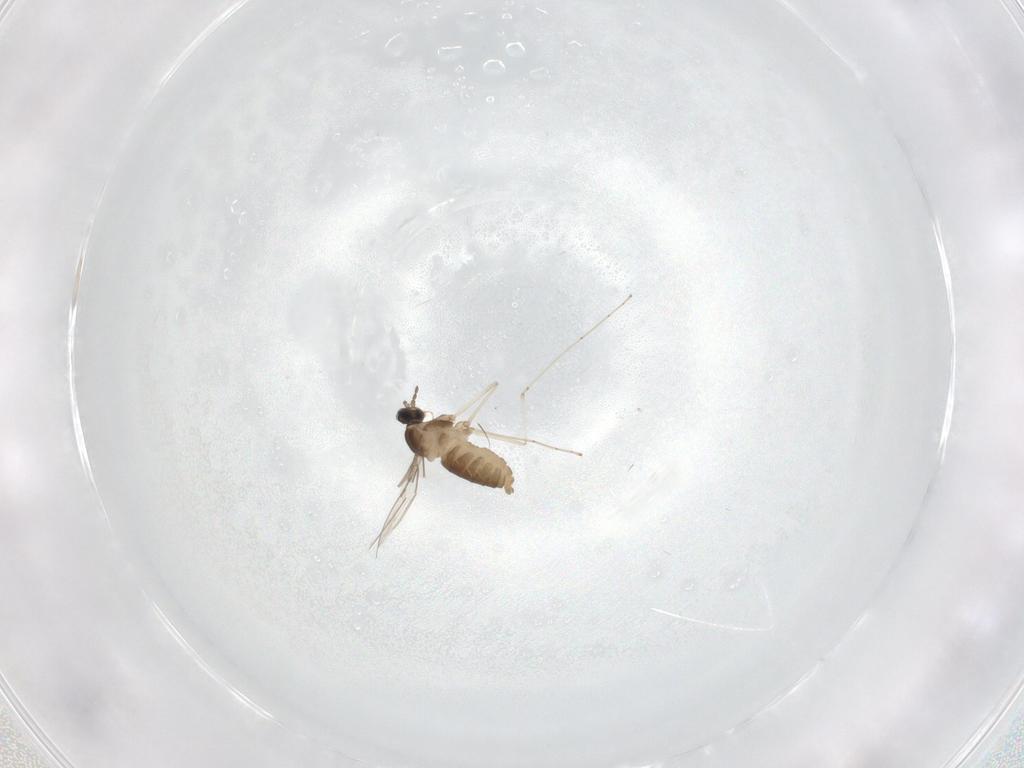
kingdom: Animalia
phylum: Arthropoda
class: Insecta
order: Diptera
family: Cecidomyiidae
